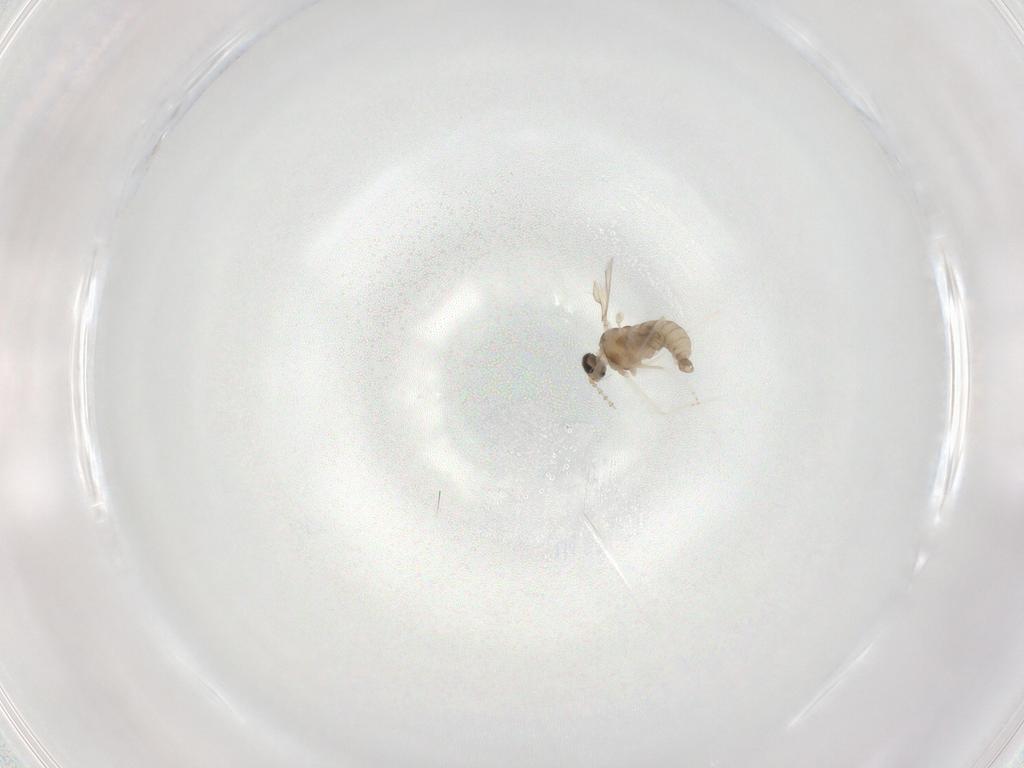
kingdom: Animalia
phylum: Arthropoda
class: Insecta
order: Diptera
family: Cecidomyiidae
